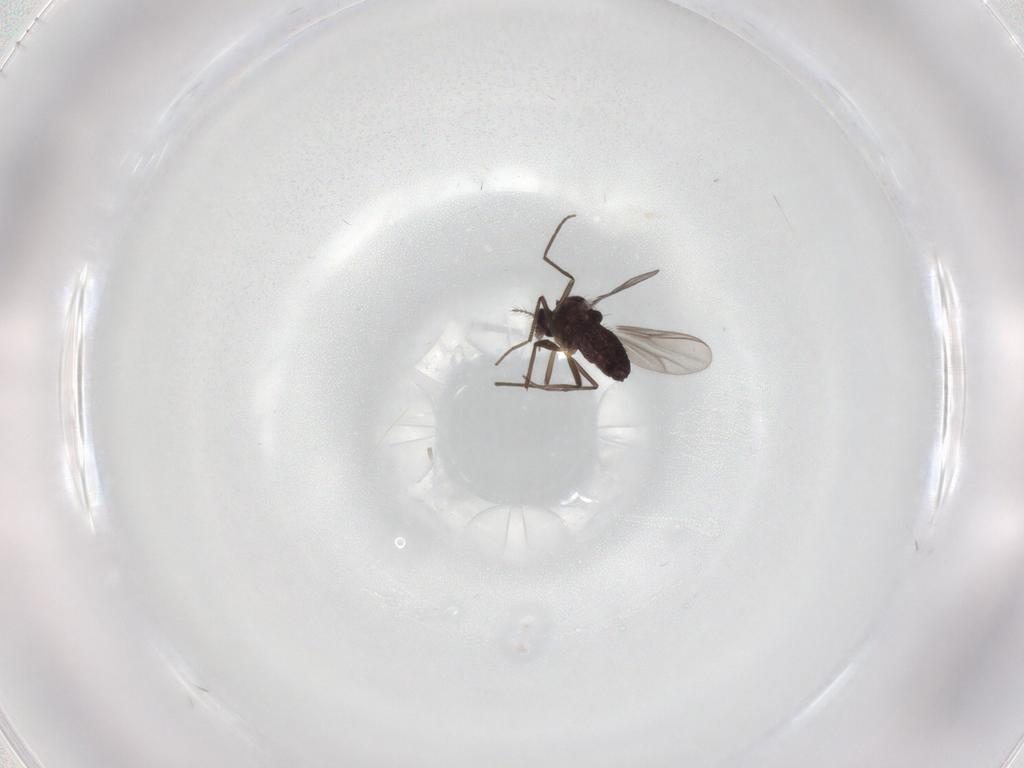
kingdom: Animalia
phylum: Arthropoda
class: Insecta
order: Diptera
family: Chironomidae
